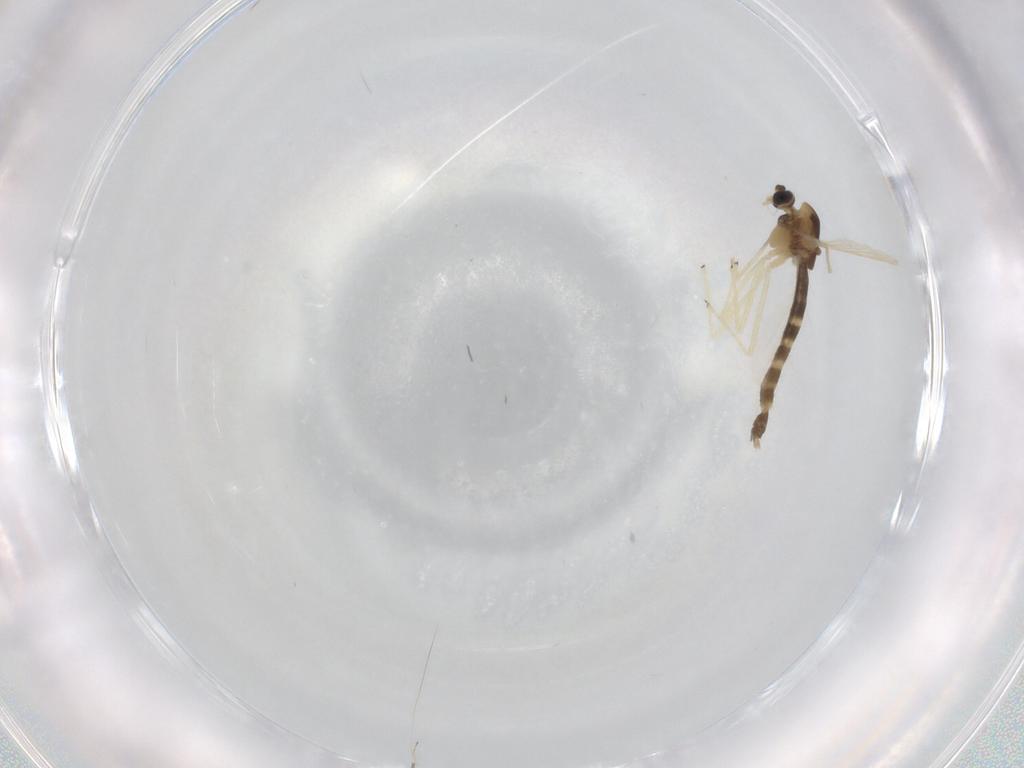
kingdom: Animalia
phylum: Arthropoda
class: Insecta
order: Diptera
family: Chironomidae
